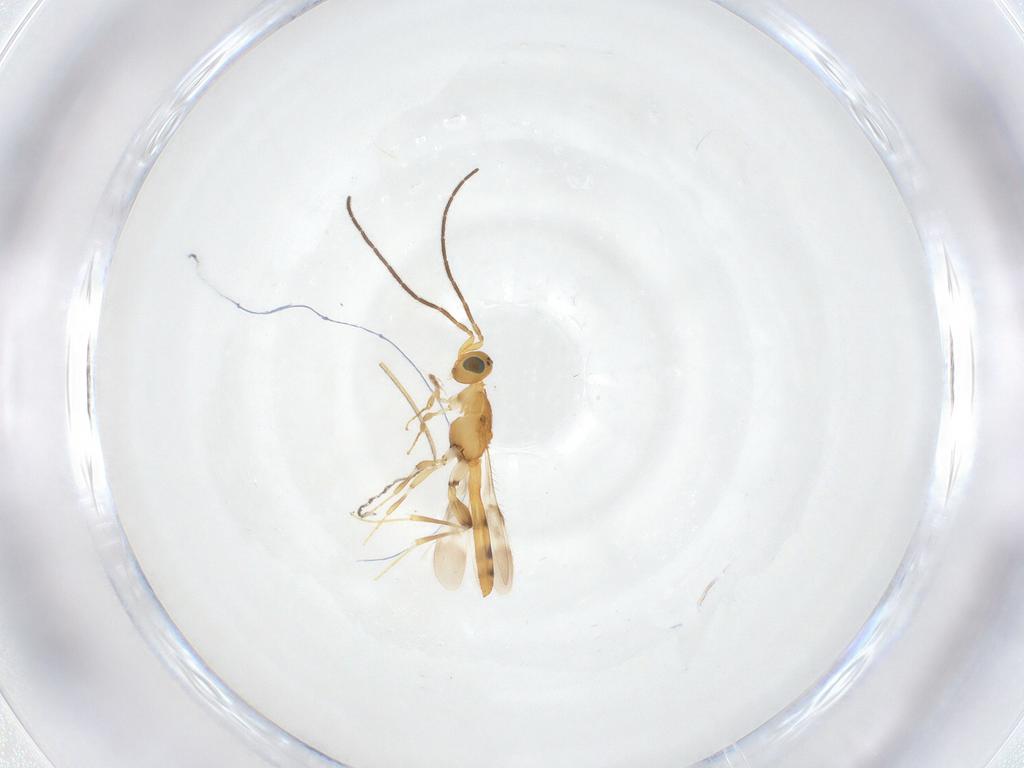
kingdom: Animalia
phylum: Arthropoda
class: Insecta
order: Hymenoptera
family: Scelionidae
